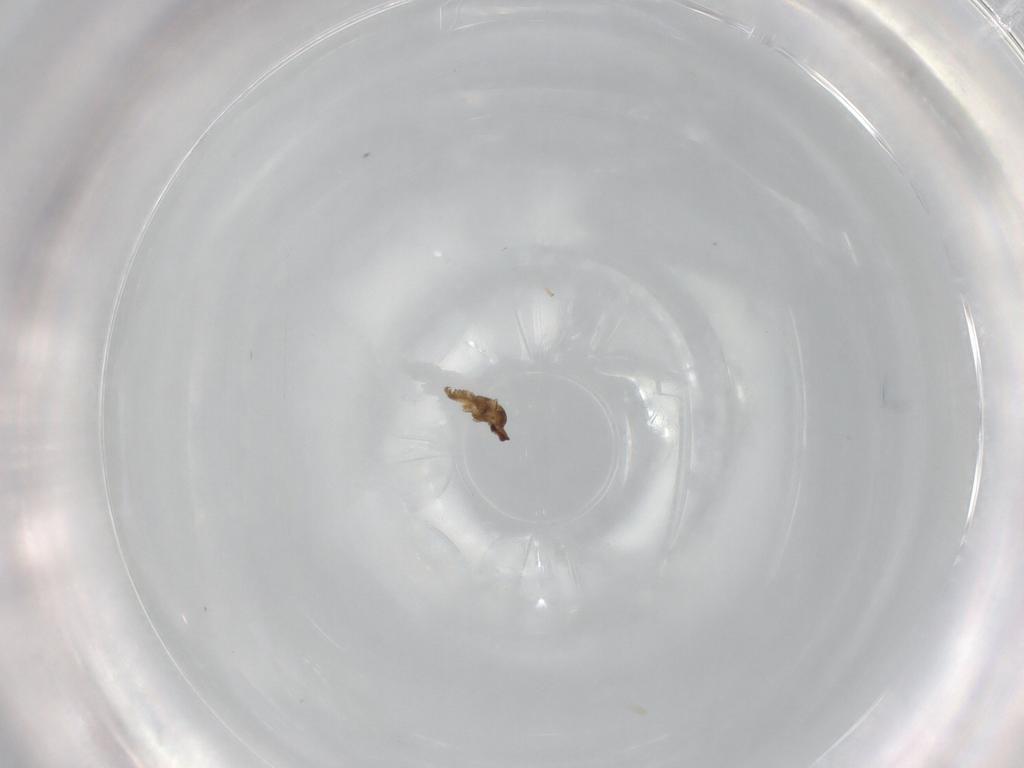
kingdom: Animalia
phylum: Arthropoda
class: Insecta
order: Diptera
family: Cecidomyiidae
